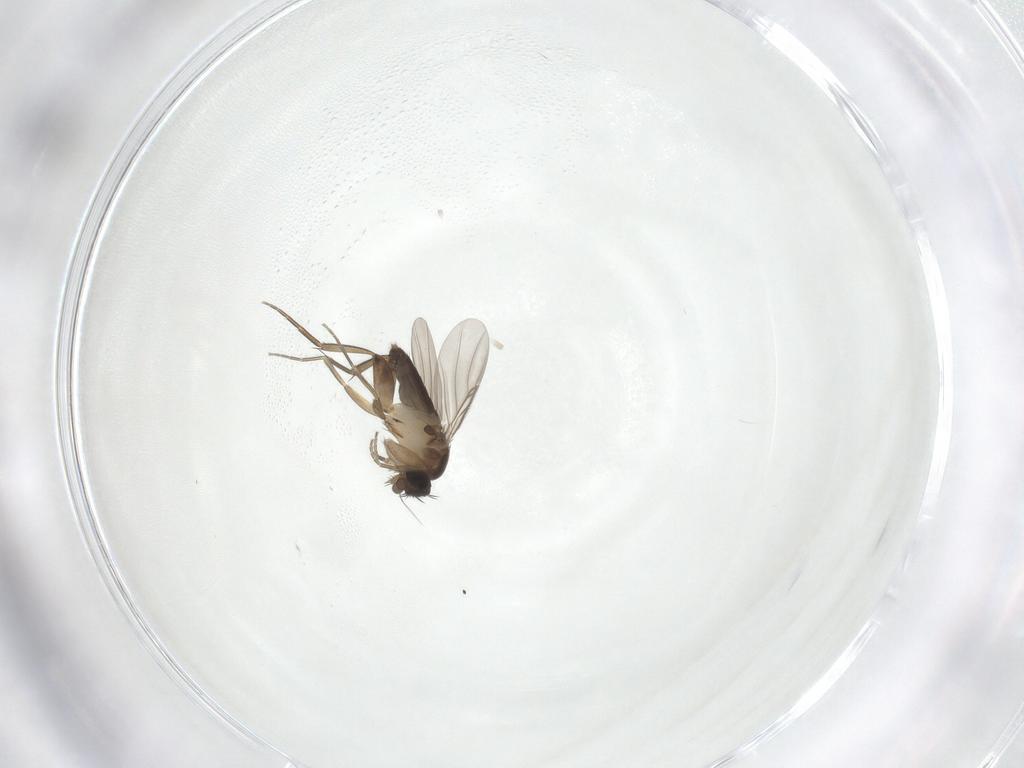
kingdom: Animalia
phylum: Arthropoda
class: Insecta
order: Diptera
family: Phoridae
